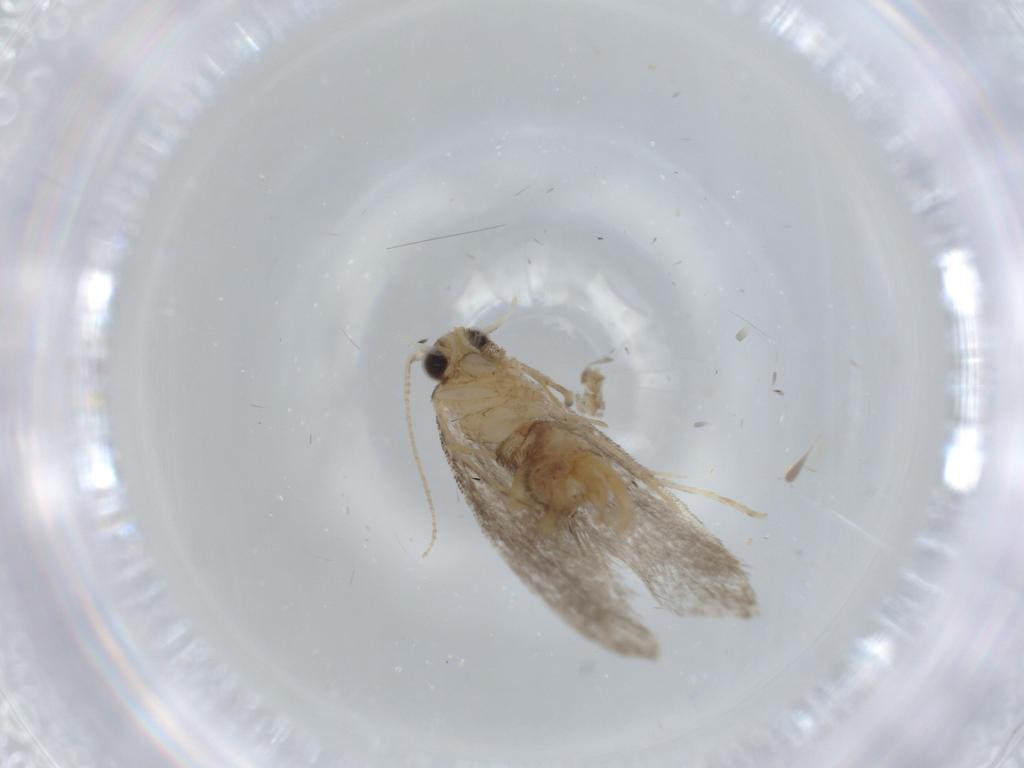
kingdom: Animalia
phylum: Arthropoda
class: Insecta
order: Lepidoptera
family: Tineidae
